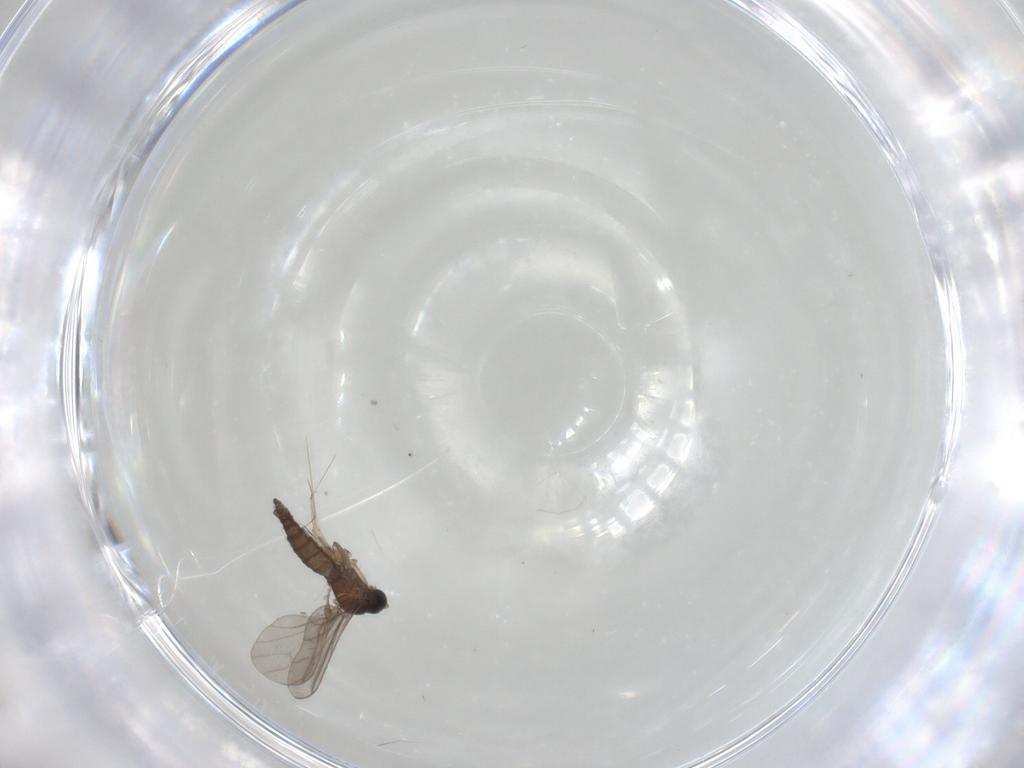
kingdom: Animalia
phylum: Arthropoda
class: Insecta
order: Diptera
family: Sciaridae
